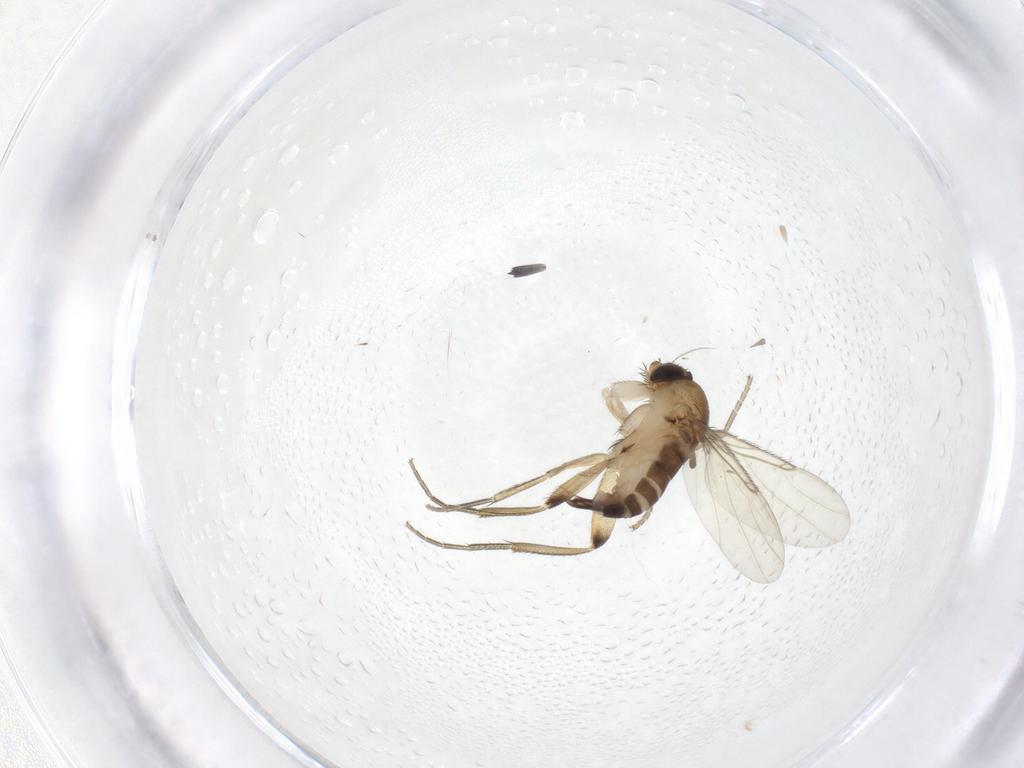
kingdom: Animalia
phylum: Arthropoda
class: Insecta
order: Diptera
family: Phoridae
